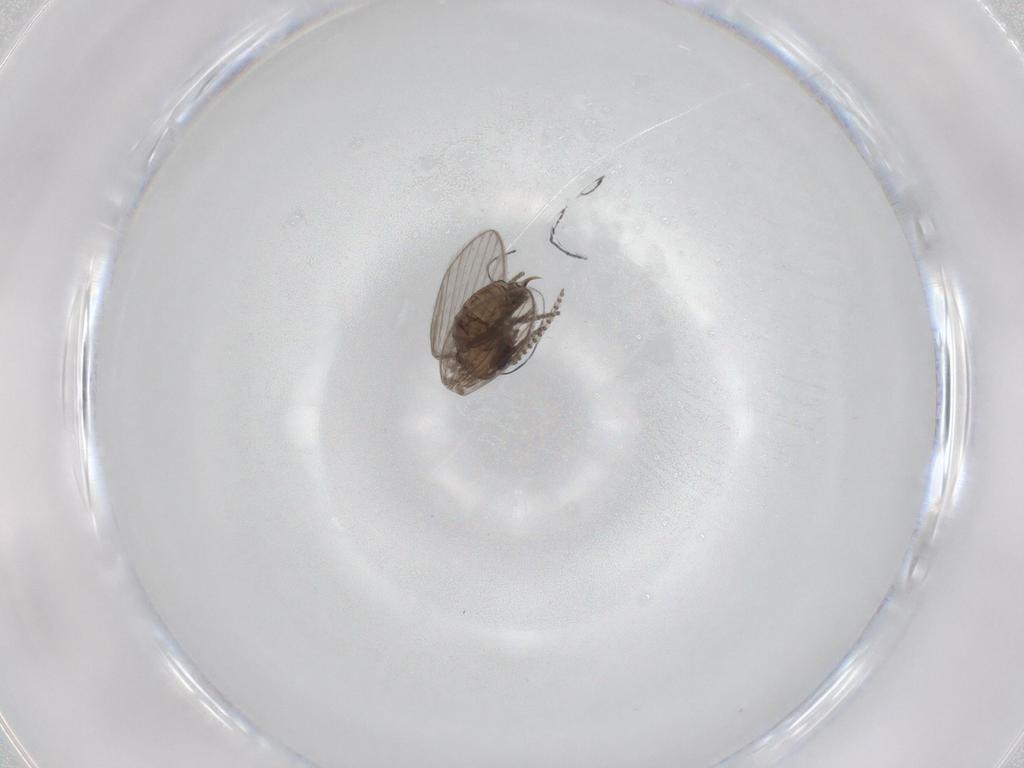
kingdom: Animalia
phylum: Arthropoda
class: Insecta
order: Diptera
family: Psychodidae
